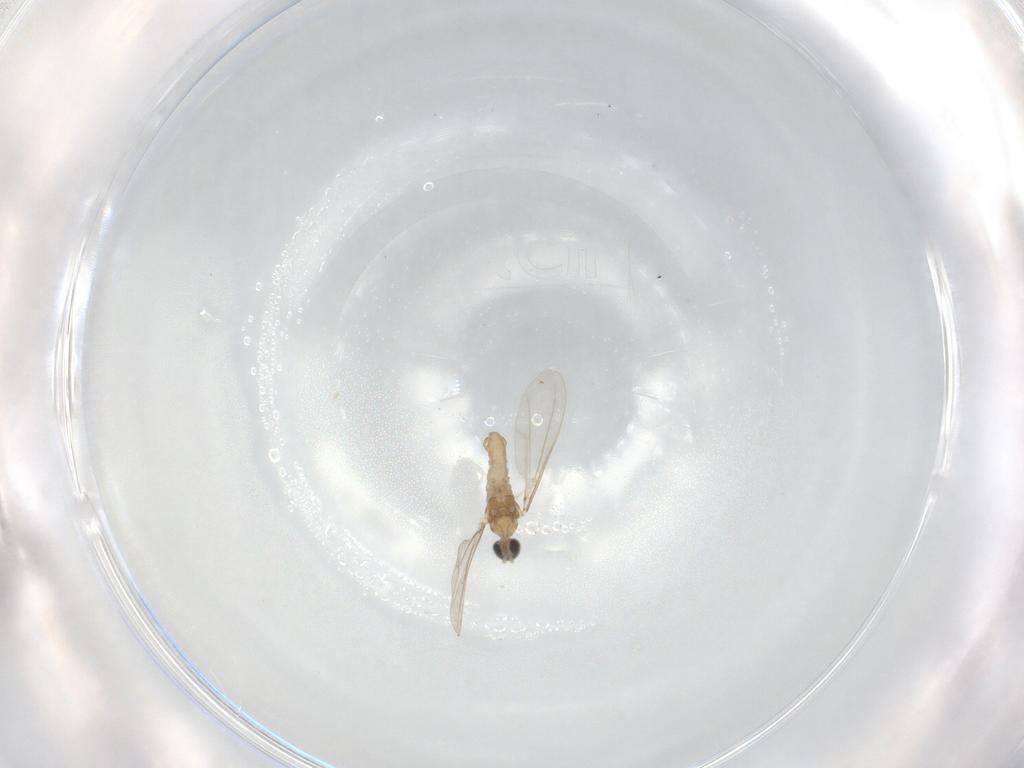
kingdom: Animalia
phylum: Arthropoda
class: Insecta
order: Diptera
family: Cecidomyiidae
